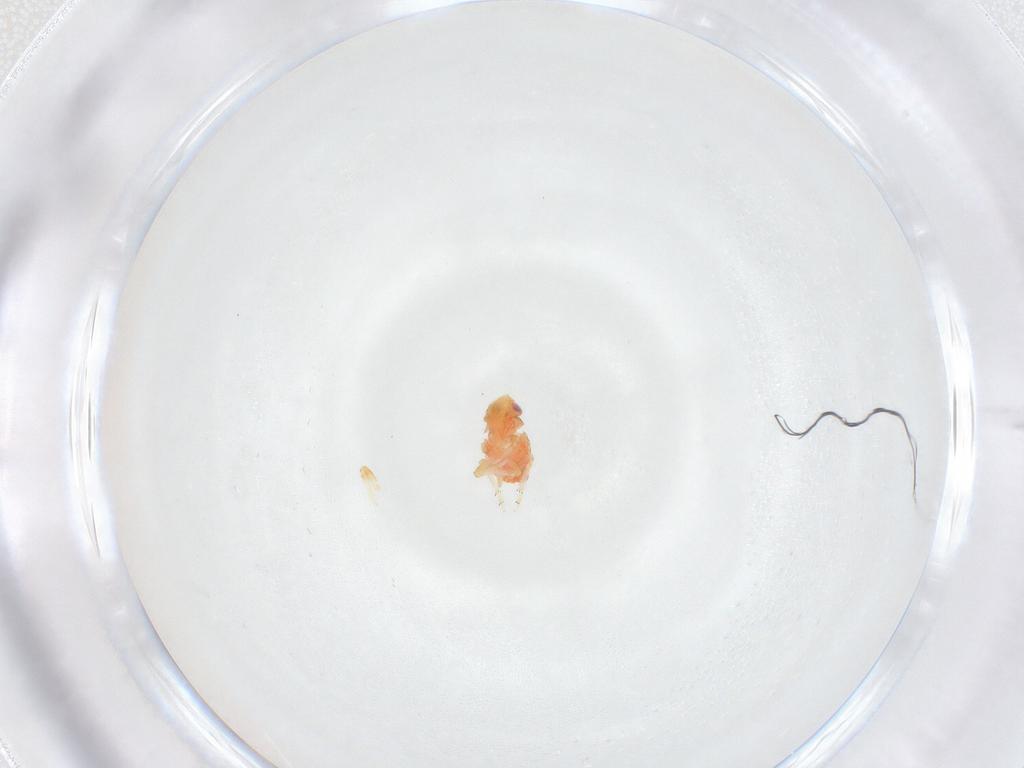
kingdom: Animalia
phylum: Arthropoda
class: Insecta
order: Hemiptera
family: Issidae
